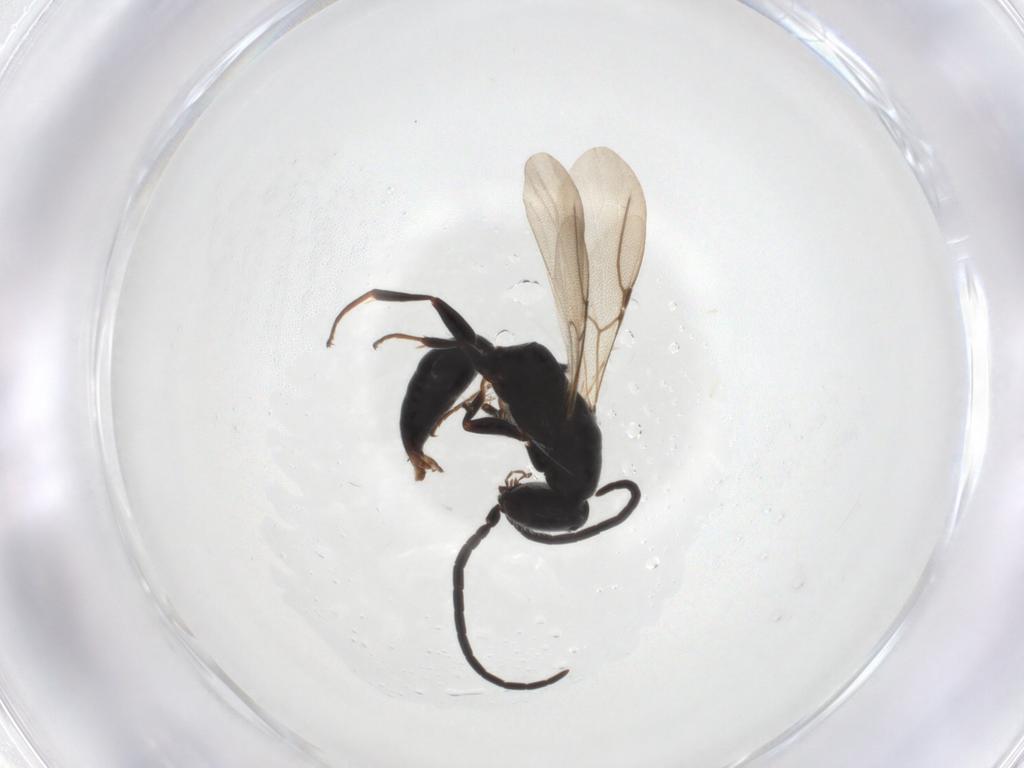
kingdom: Animalia
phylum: Arthropoda
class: Insecta
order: Hymenoptera
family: Bethylidae
